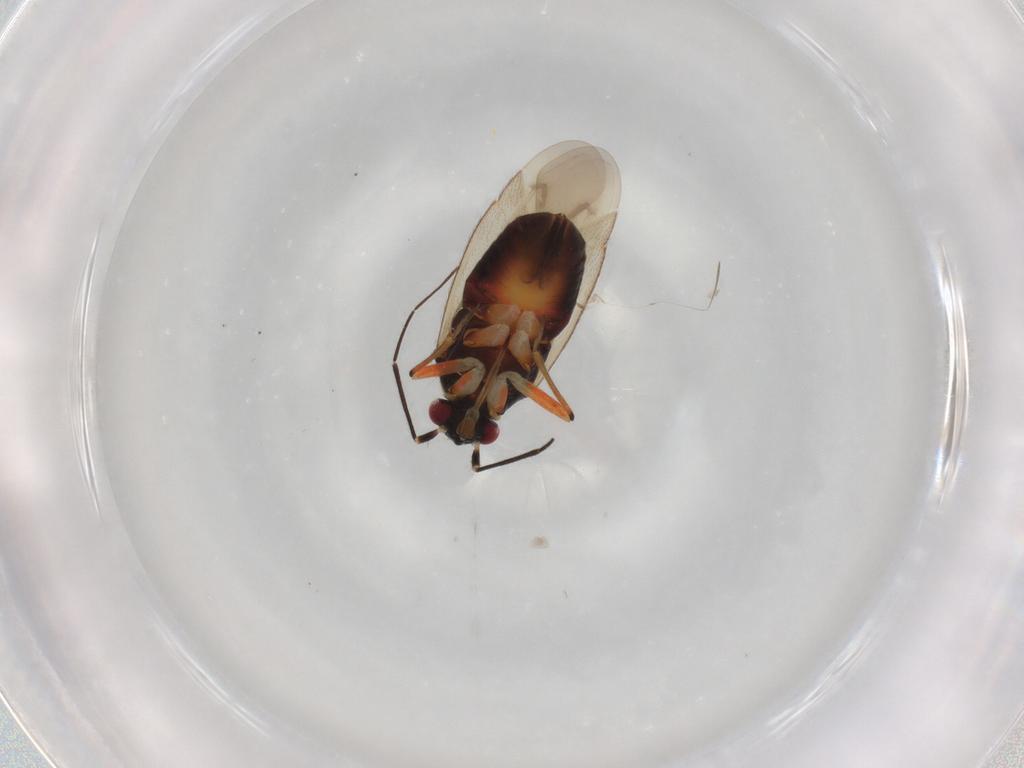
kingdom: Animalia
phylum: Arthropoda
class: Insecta
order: Hemiptera
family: Miridae
